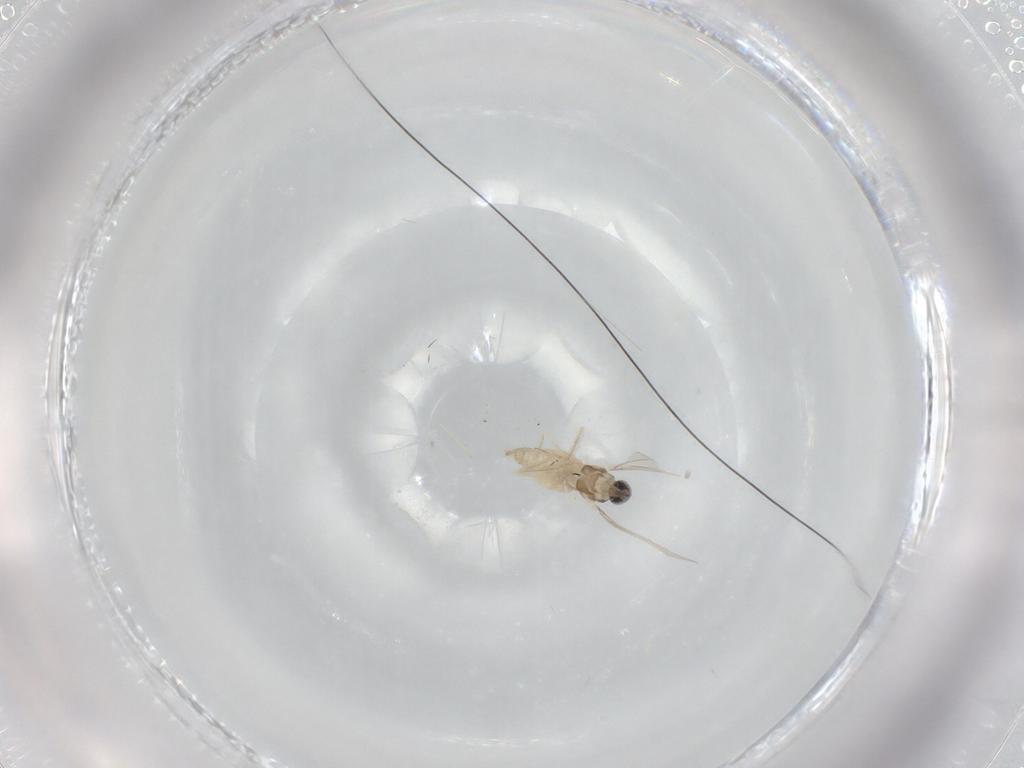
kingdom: Animalia
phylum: Arthropoda
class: Insecta
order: Diptera
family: Cecidomyiidae
